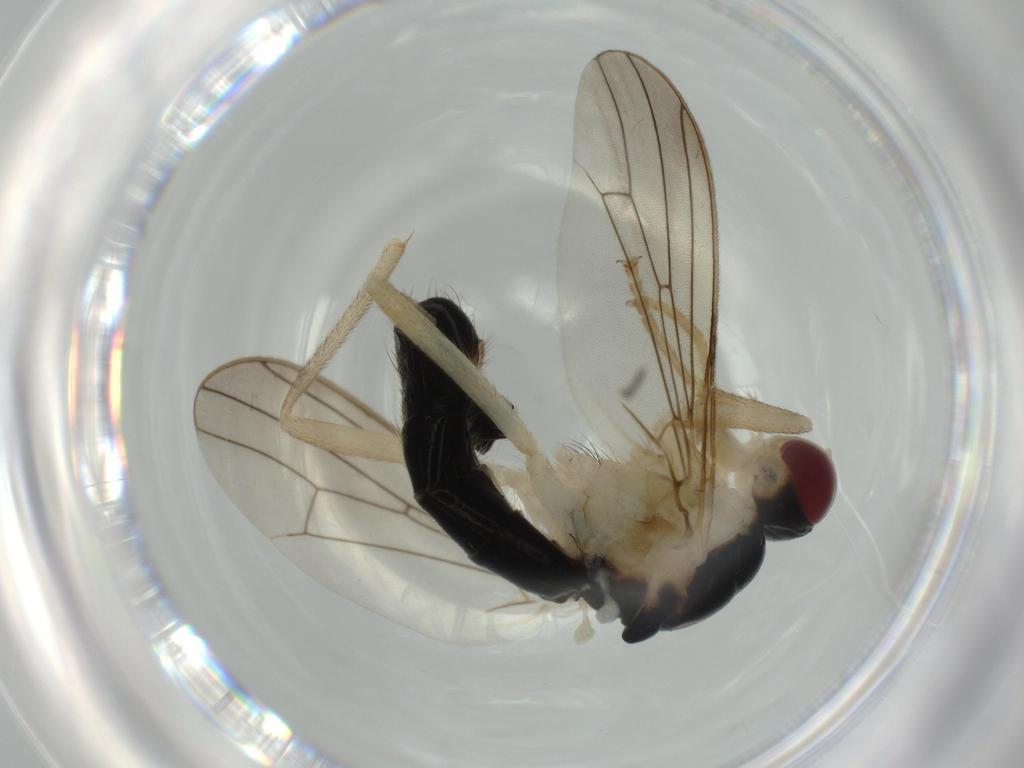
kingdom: Animalia
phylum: Arthropoda
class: Insecta
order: Diptera
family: Scathophagidae
